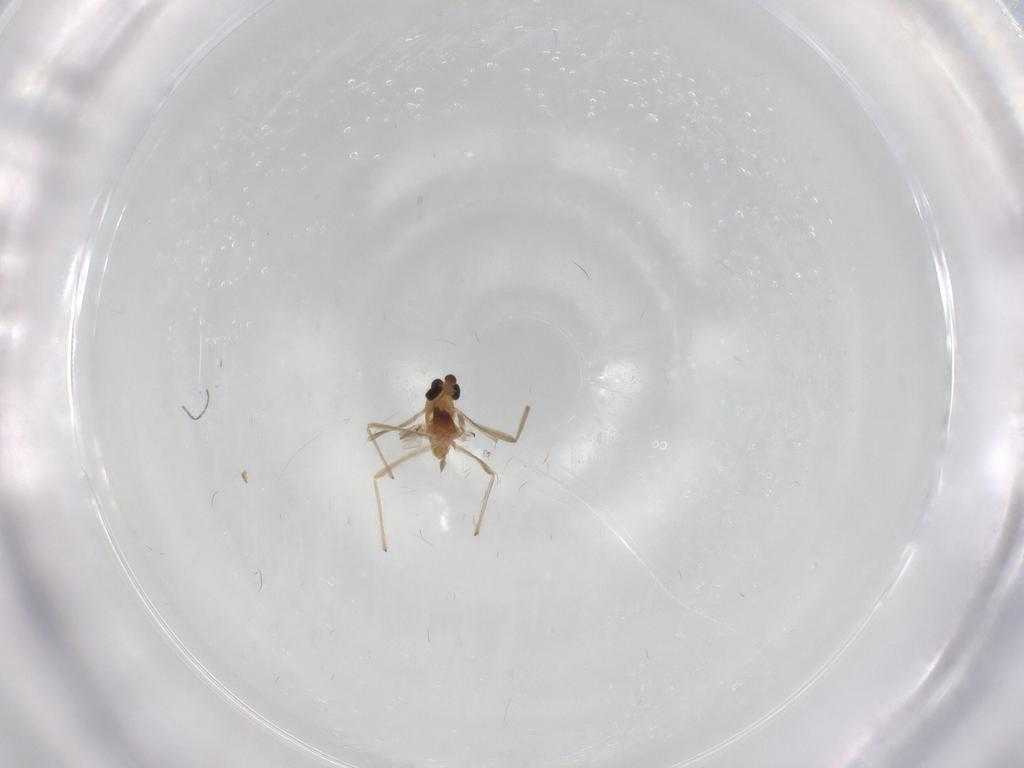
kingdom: Animalia
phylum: Arthropoda
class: Insecta
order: Diptera
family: Chironomidae
